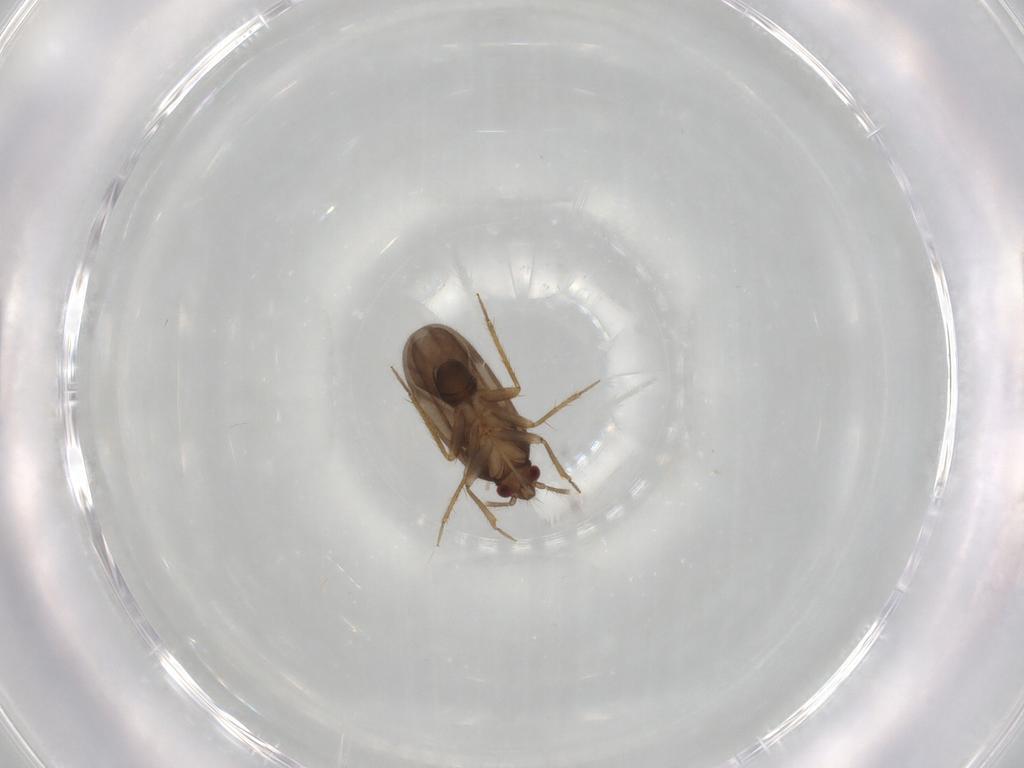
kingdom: Animalia
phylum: Arthropoda
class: Insecta
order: Hemiptera
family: Ceratocombidae
